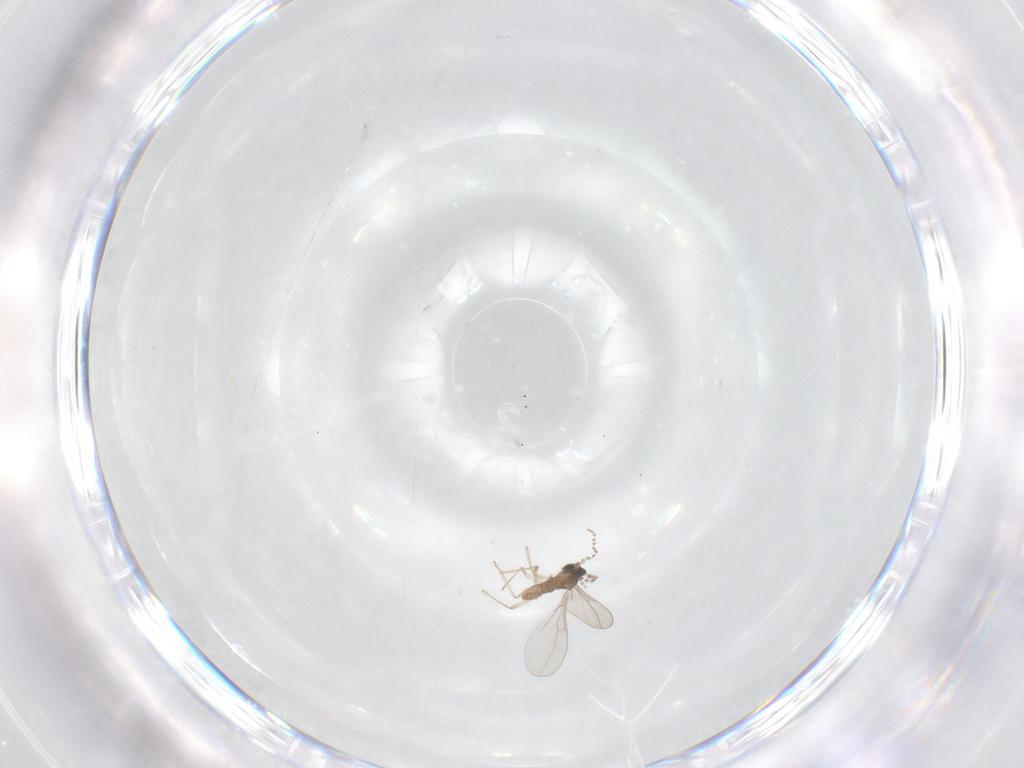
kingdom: Animalia
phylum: Arthropoda
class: Insecta
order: Diptera
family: Cecidomyiidae
